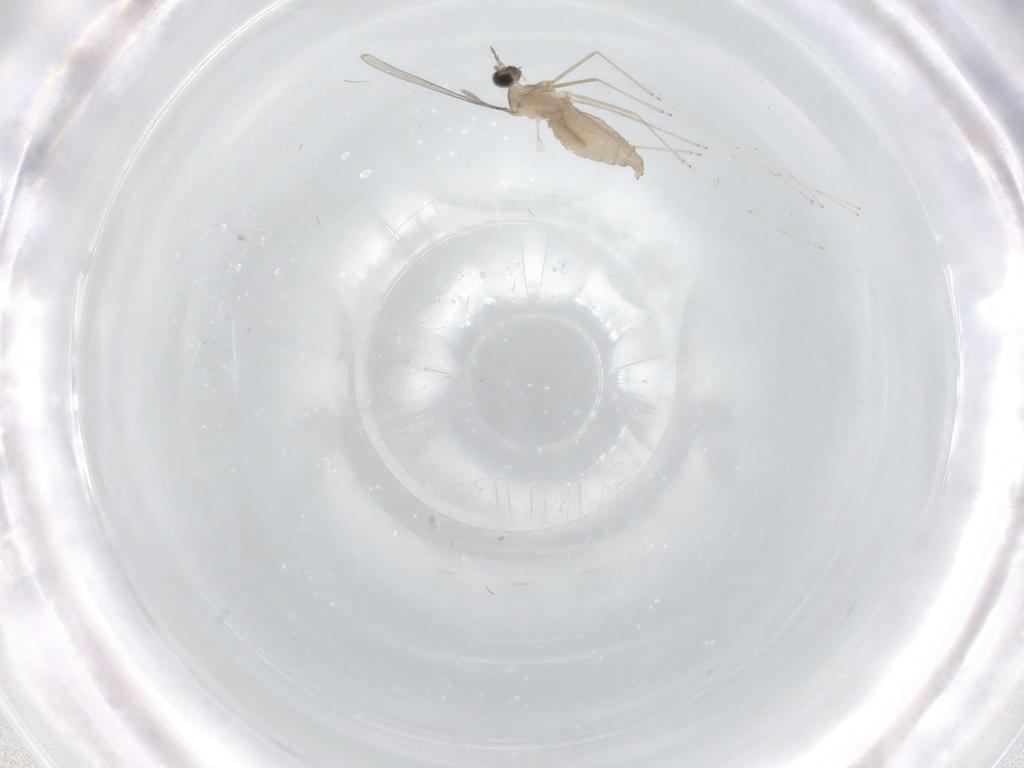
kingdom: Animalia
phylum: Arthropoda
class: Insecta
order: Diptera
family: Cecidomyiidae
